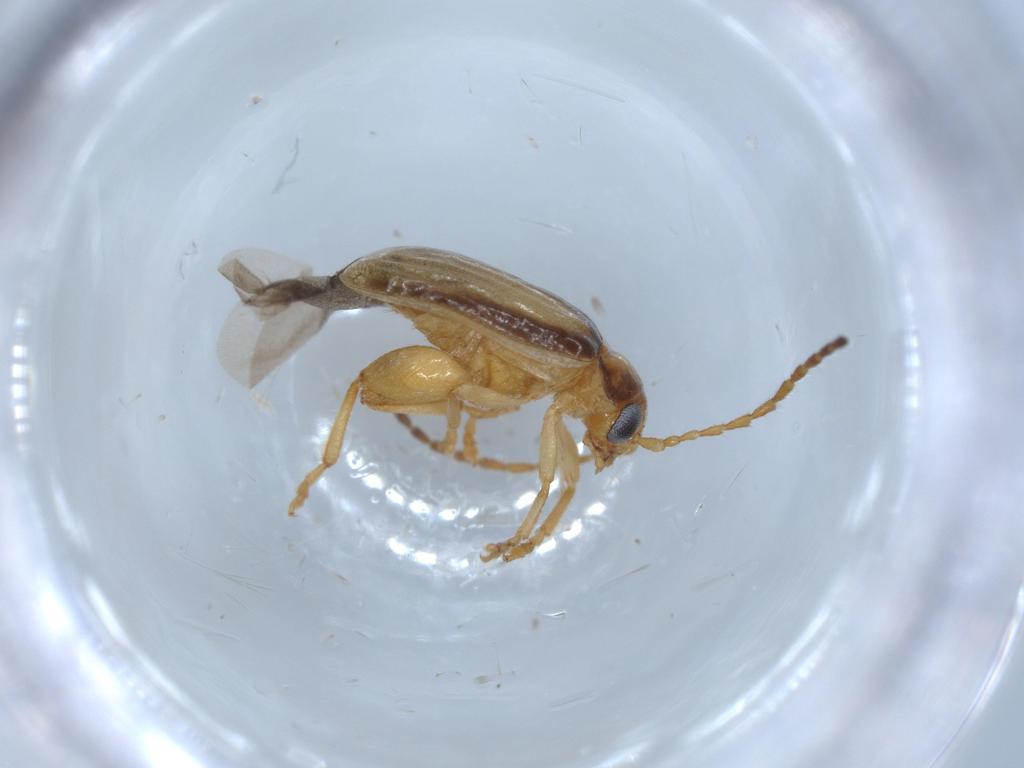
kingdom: Animalia
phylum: Arthropoda
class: Insecta
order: Coleoptera
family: Chrysomelidae
